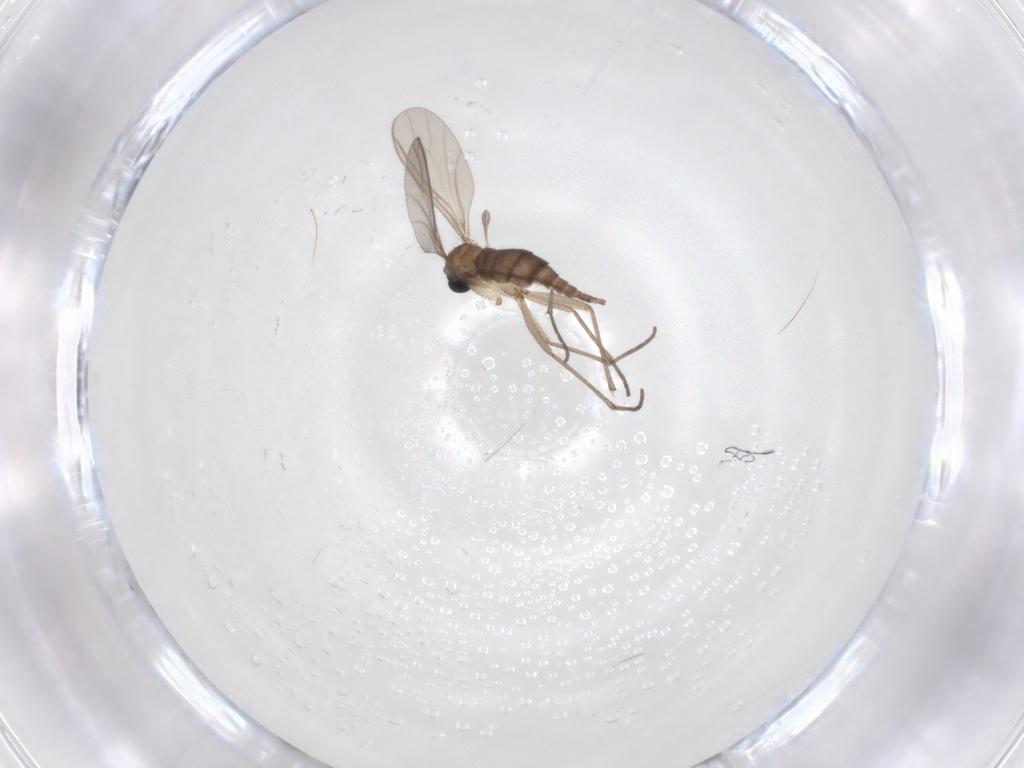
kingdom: Animalia
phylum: Arthropoda
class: Insecta
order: Diptera
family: Sciaridae
